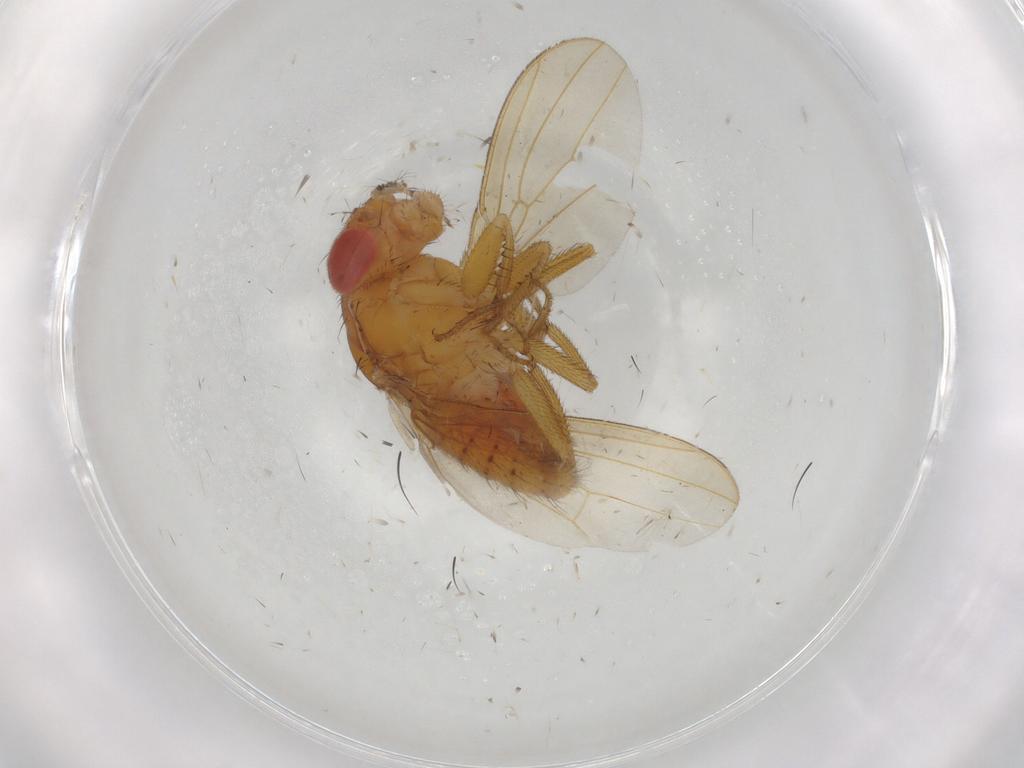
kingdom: Animalia
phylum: Arthropoda
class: Insecta
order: Diptera
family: Drosophilidae
